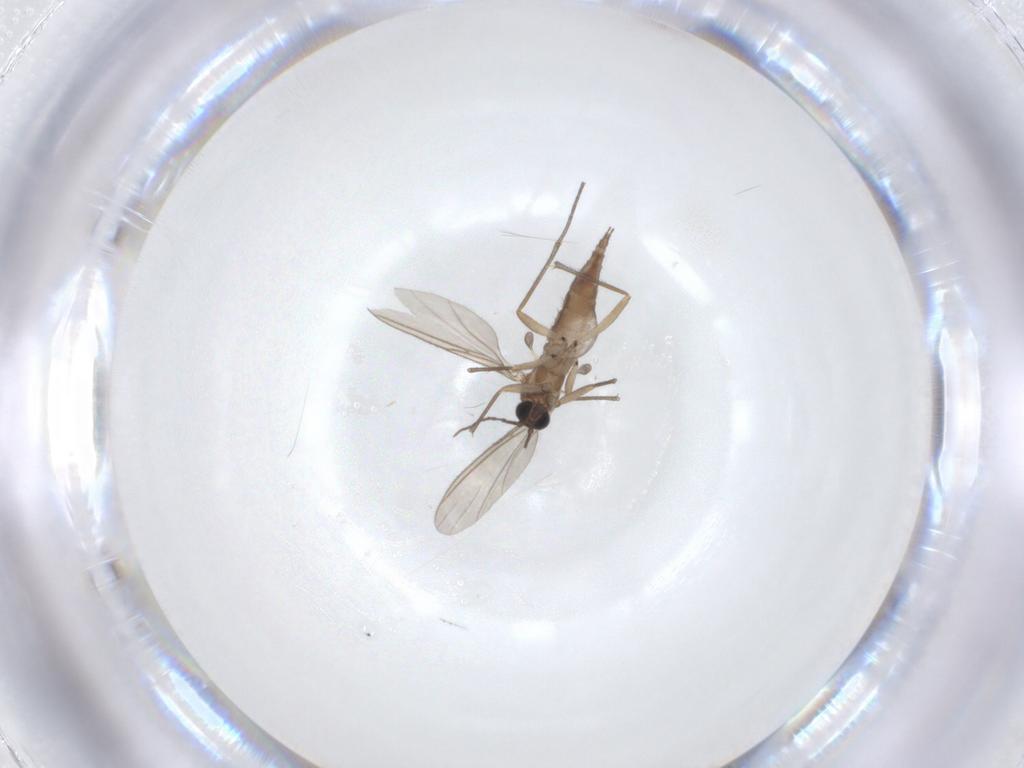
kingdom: Animalia
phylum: Arthropoda
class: Insecta
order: Diptera
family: Sciaridae
